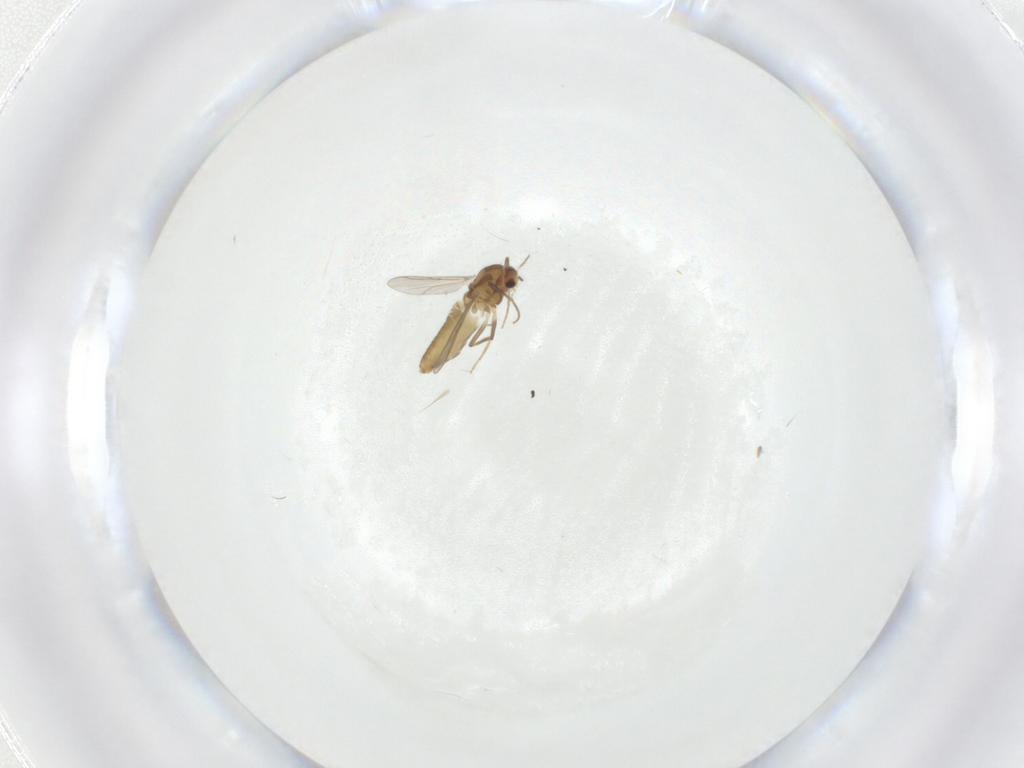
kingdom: Animalia
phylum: Arthropoda
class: Insecta
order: Diptera
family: Chironomidae
